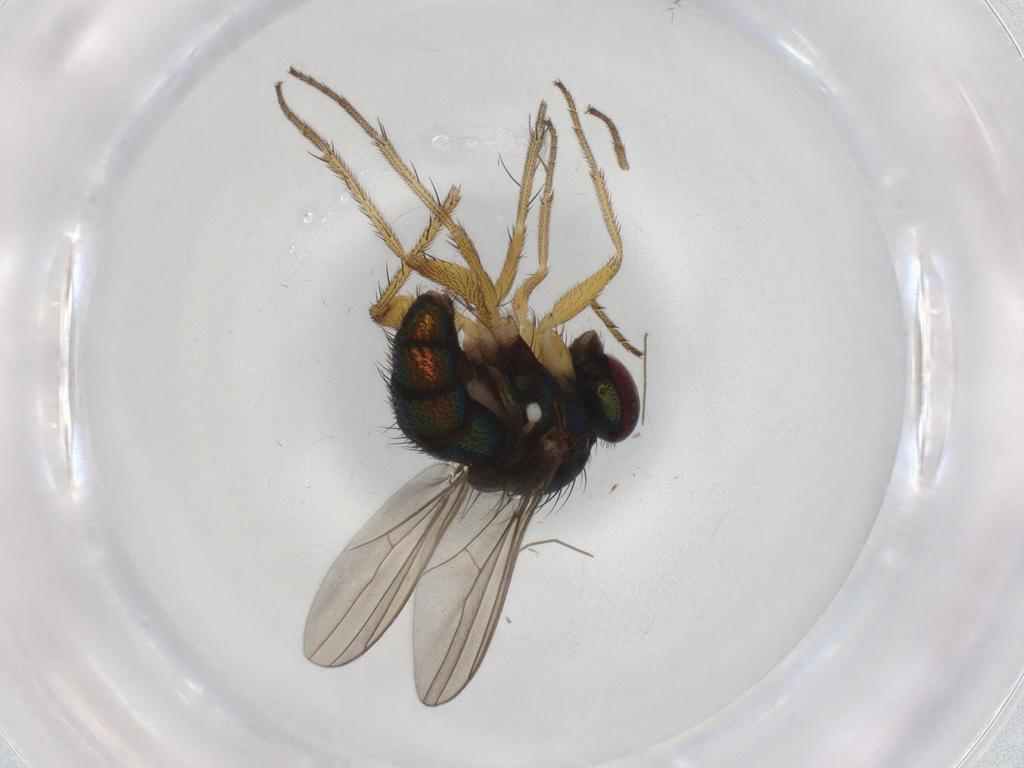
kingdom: Animalia
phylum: Arthropoda
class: Insecta
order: Diptera
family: Dolichopodidae
